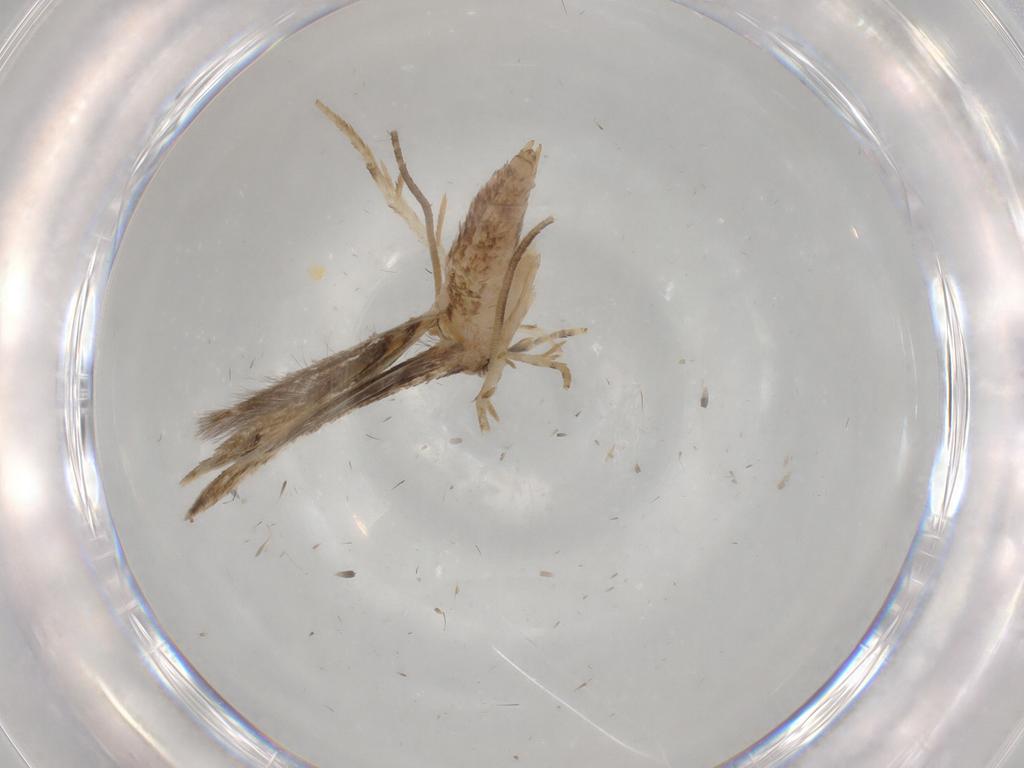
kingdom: Animalia
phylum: Arthropoda
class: Insecta
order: Lepidoptera
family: Momphidae
